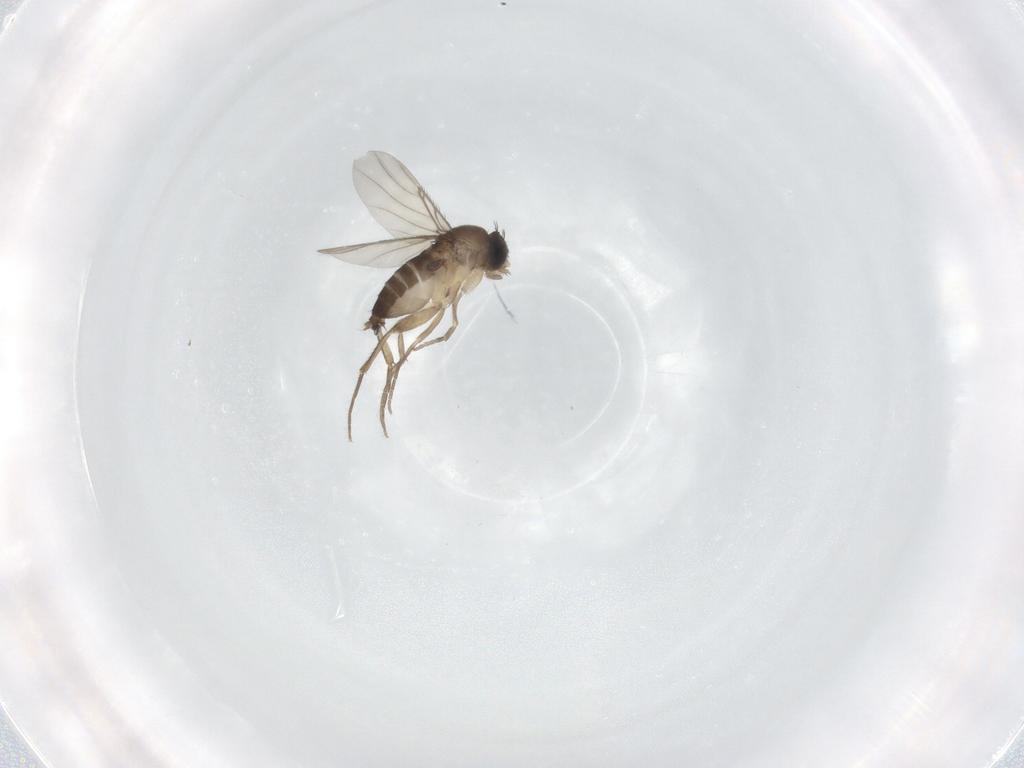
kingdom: Animalia
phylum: Arthropoda
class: Insecta
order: Diptera
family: Phoridae
